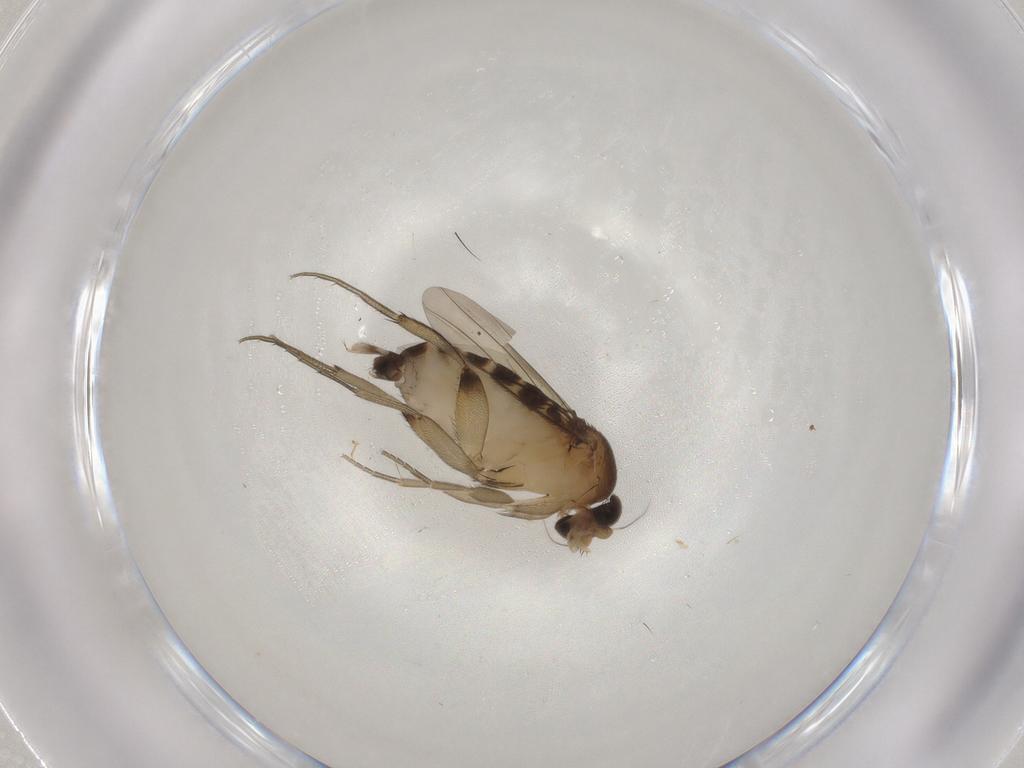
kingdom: Animalia
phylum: Arthropoda
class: Insecta
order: Diptera
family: Phoridae
